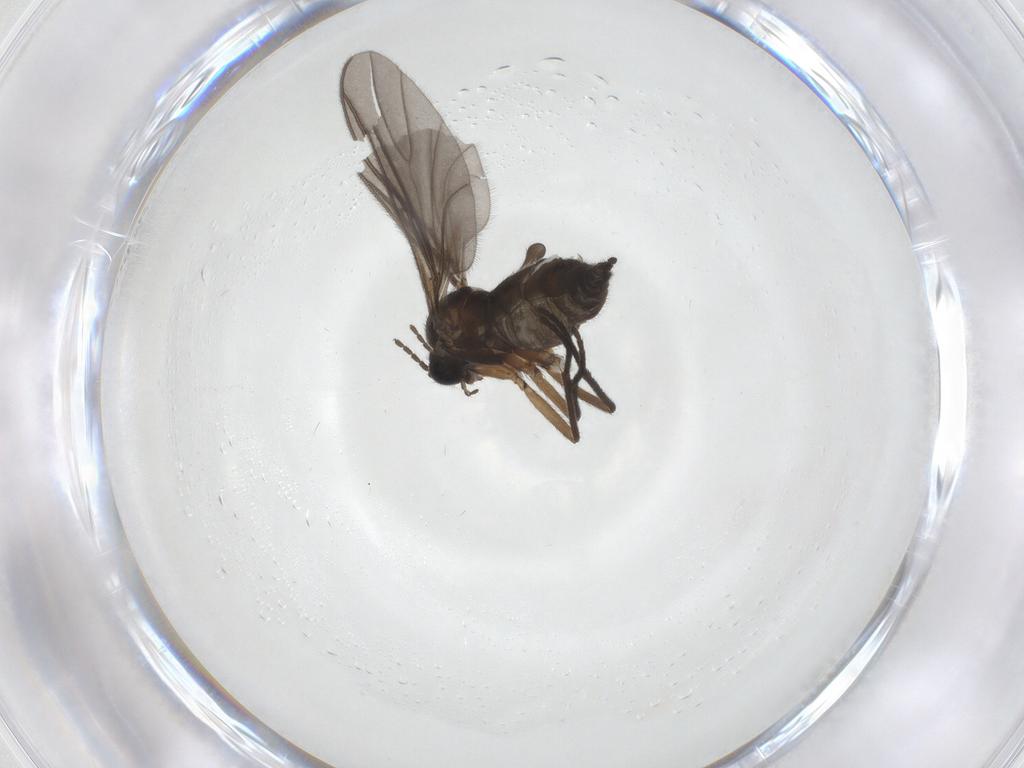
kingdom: Animalia
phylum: Arthropoda
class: Insecta
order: Diptera
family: Sciaridae
